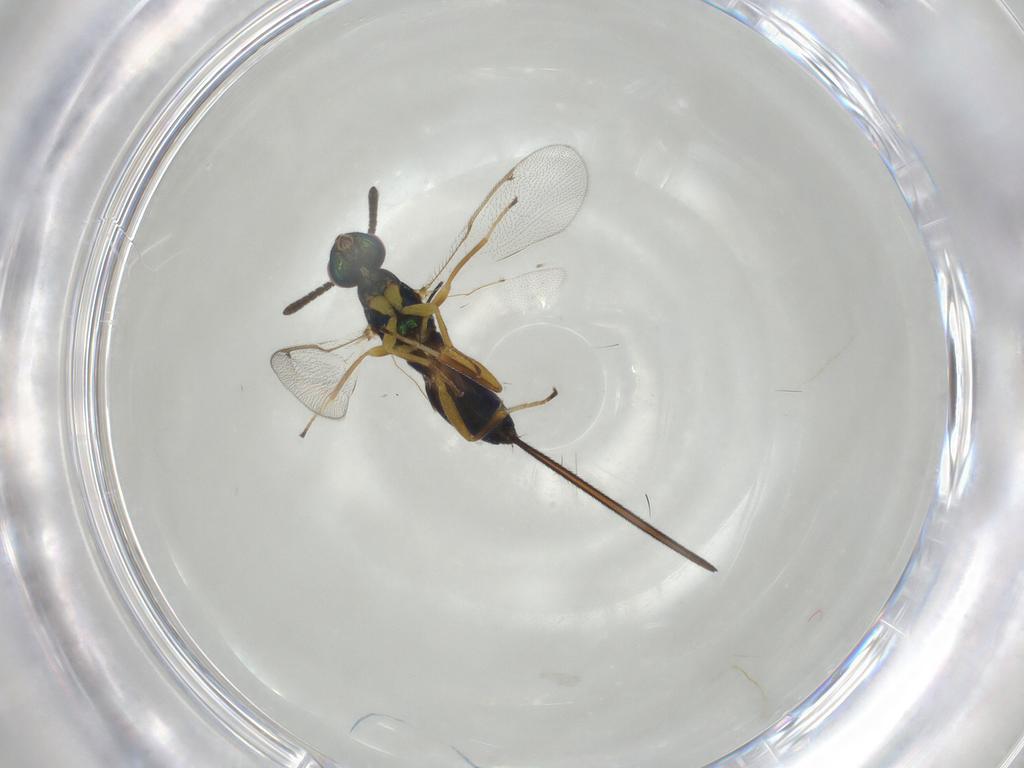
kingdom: Animalia
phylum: Arthropoda
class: Insecta
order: Hymenoptera
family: Torymidae
